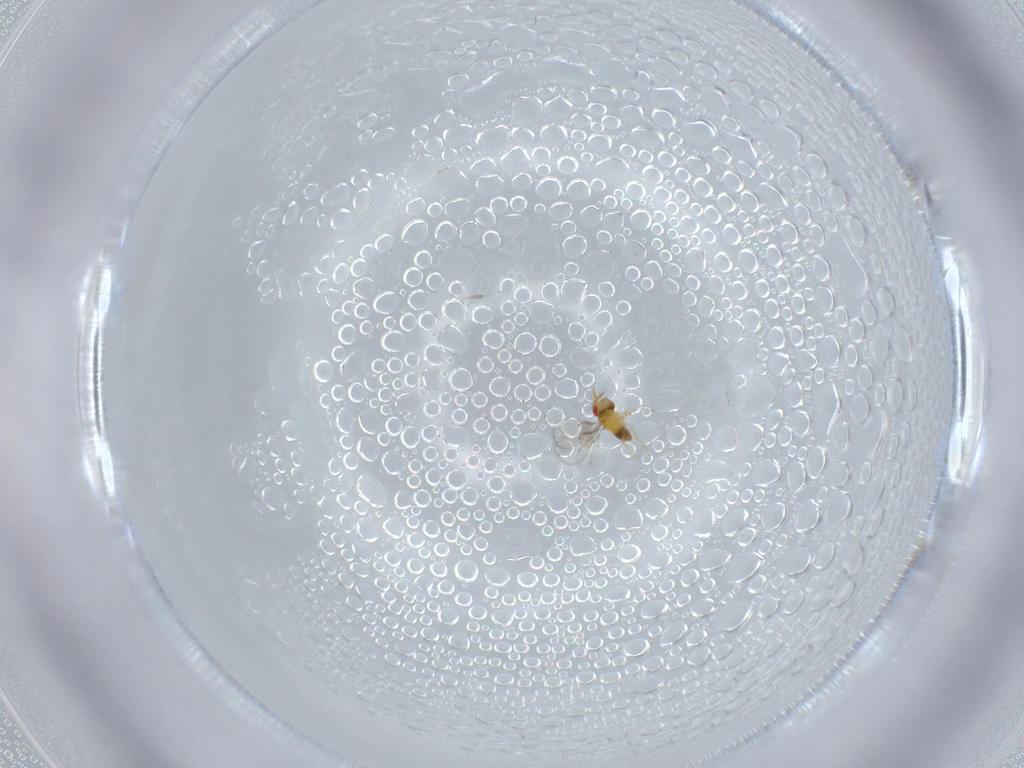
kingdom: Animalia
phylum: Arthropoda
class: Insecta
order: Hymenoptera
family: Trichogrammatidae
